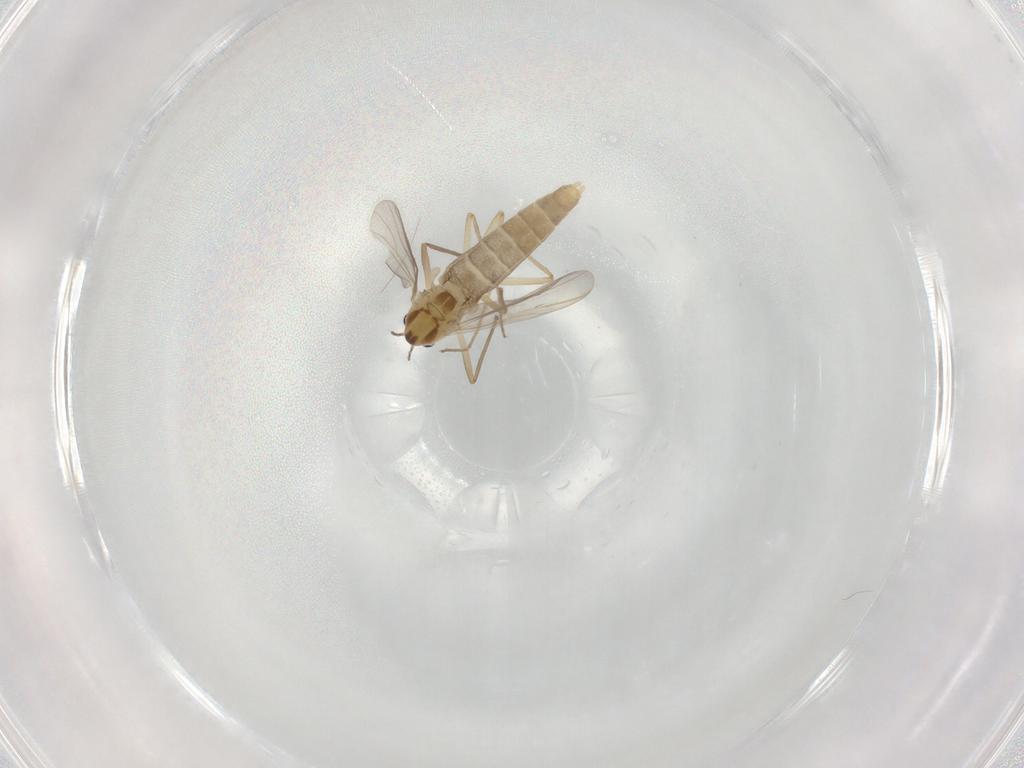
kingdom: Animalia
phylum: Arthropoda
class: Insecta
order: Diptera
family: Chironomidae
